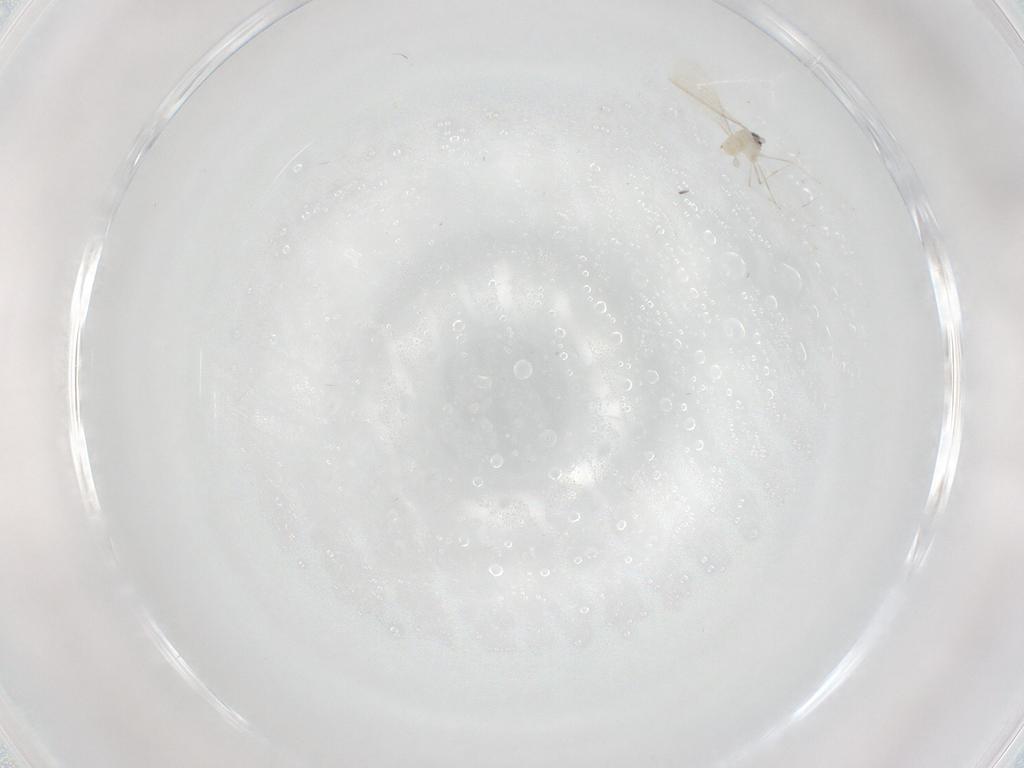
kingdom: Animalia
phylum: Arthropoda
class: Insecta
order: Diptera
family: Cecidomyiidae
